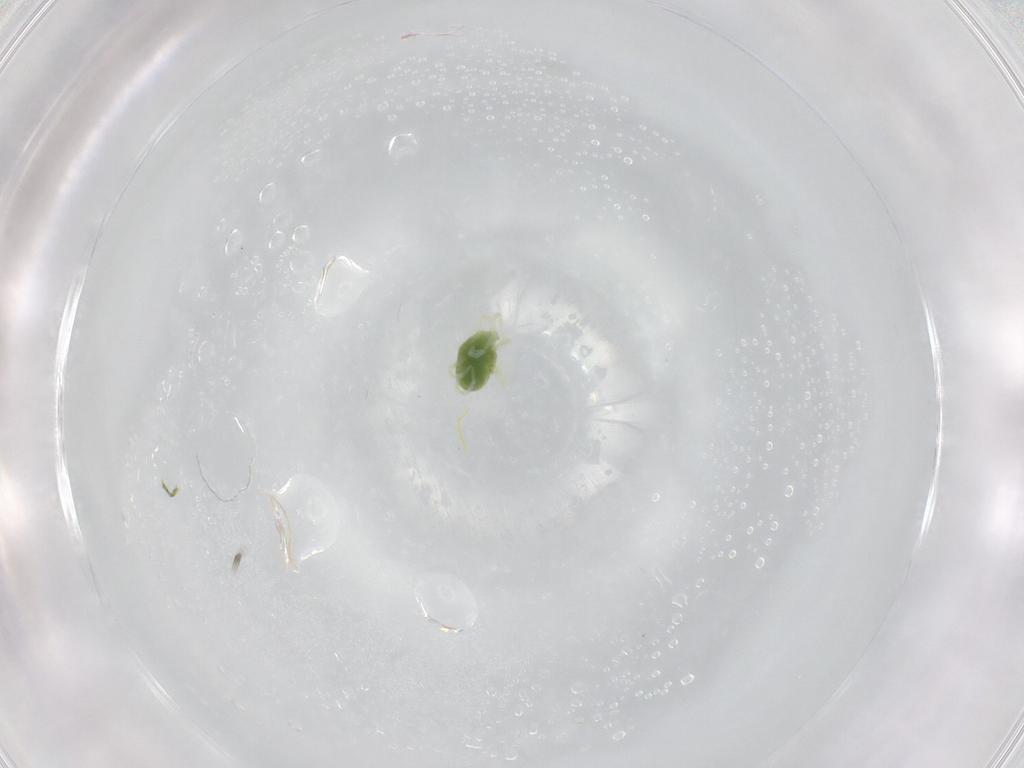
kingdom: Animalia
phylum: Arthropoda
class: Arachnida
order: Trombidiformes
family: Penthaleidae
